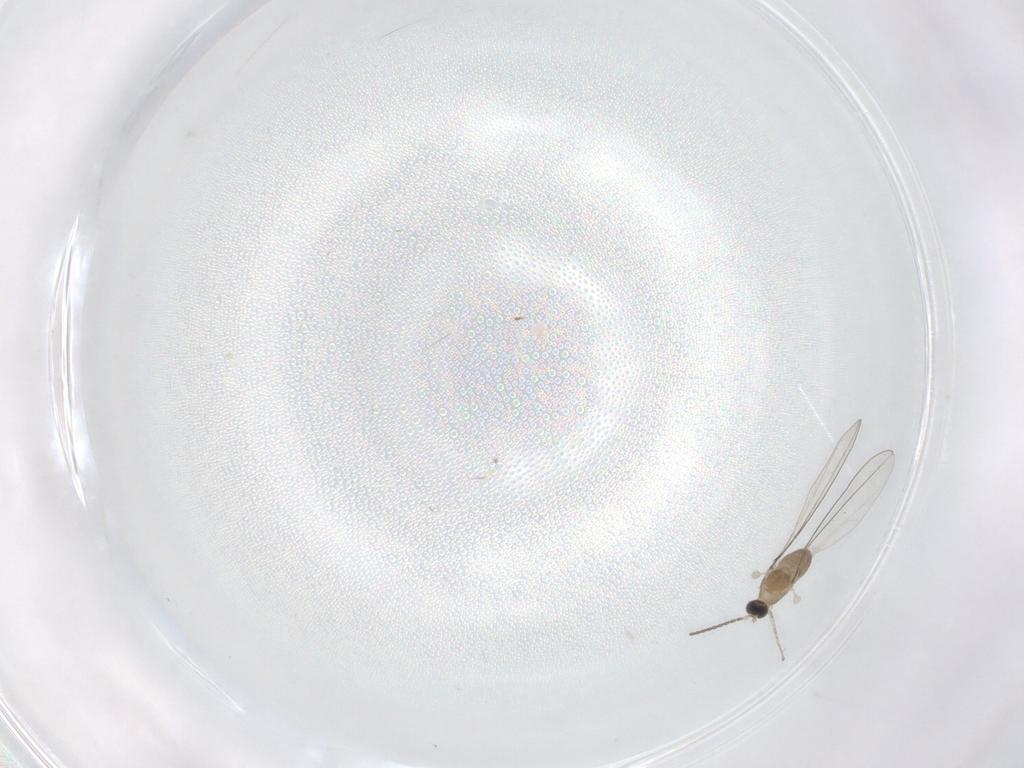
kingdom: Animalia
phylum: Arthropoda
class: Insecta
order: Diptera
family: Cecidomyiidae
